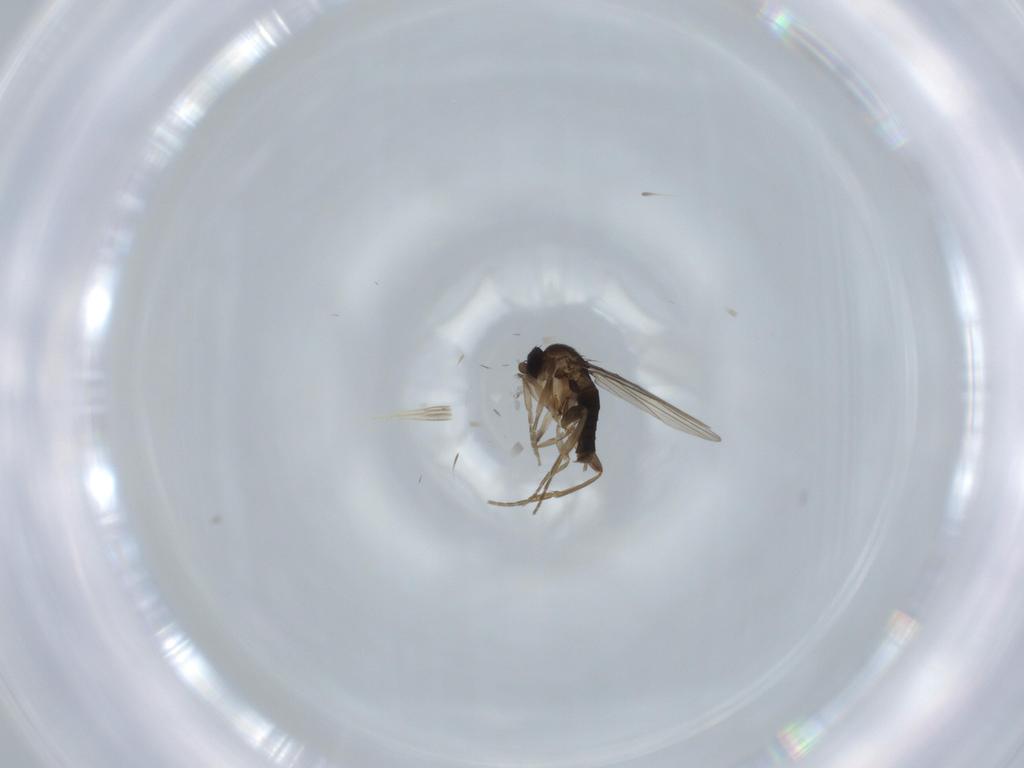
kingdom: Animalia
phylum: Arthropoda
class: Insecta
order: Diptera
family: Phoridae
